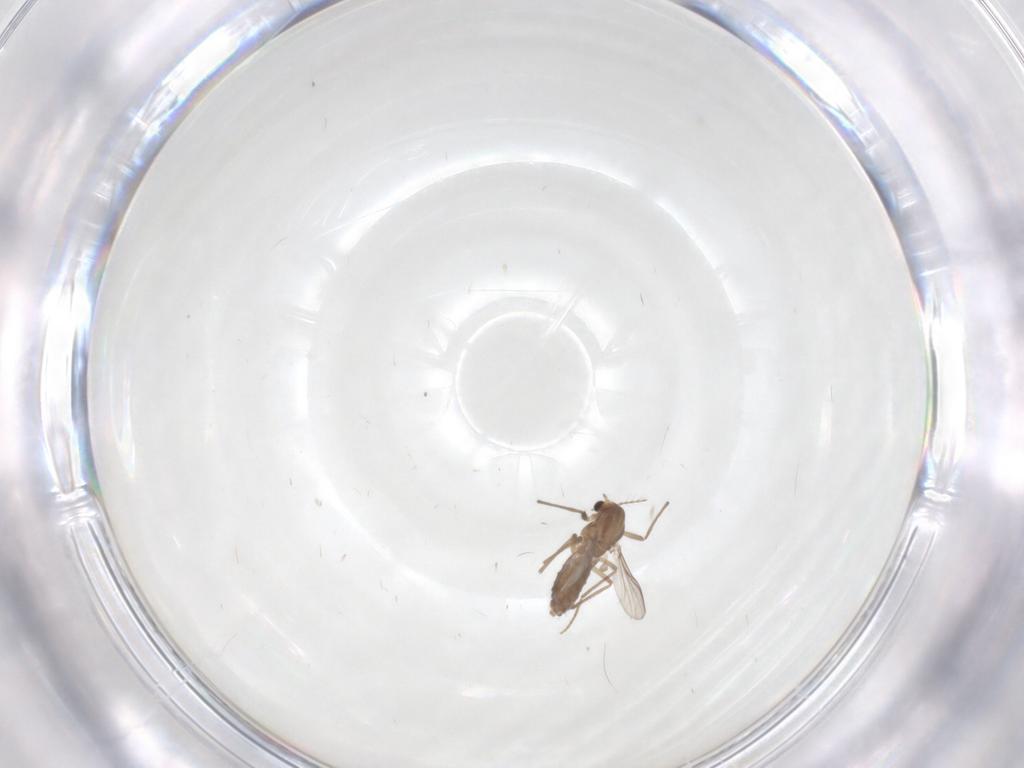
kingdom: Animalia
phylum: Arthropoda
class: Insecta
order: Diptera
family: Chironomidae
